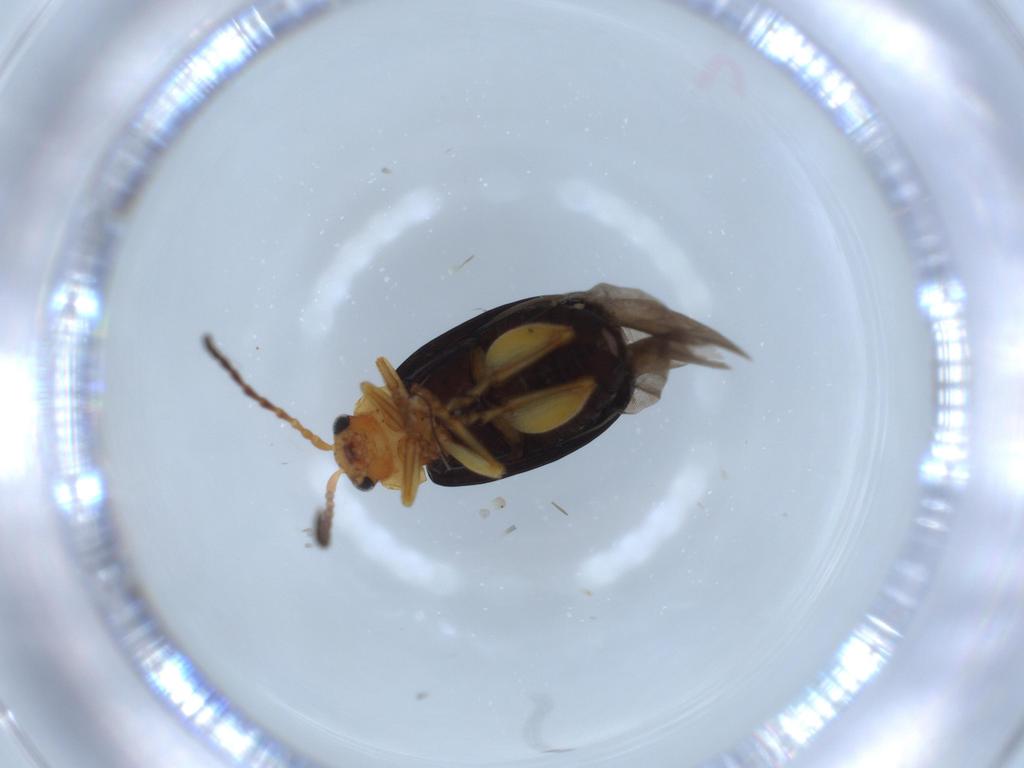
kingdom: Animalia
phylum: Arthropoda
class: Insecta
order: Coleoptera
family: Chrysomelidae
